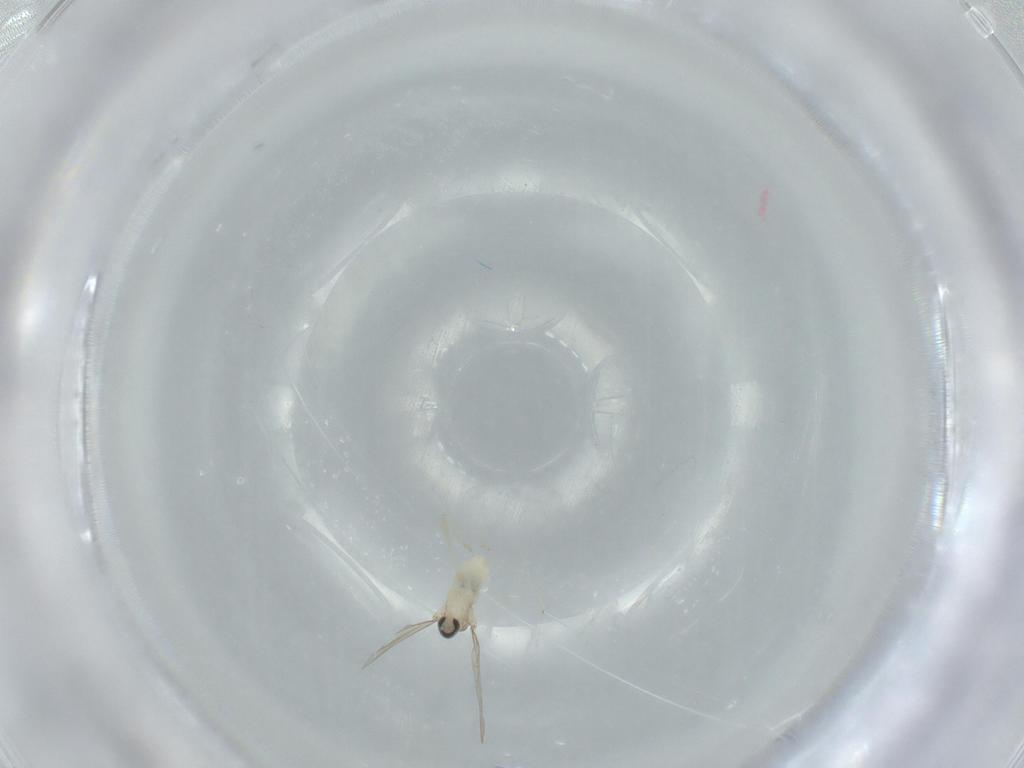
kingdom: Animalia
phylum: Arthropoda
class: Insecta
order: Diptera
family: Cecidomyiidae
